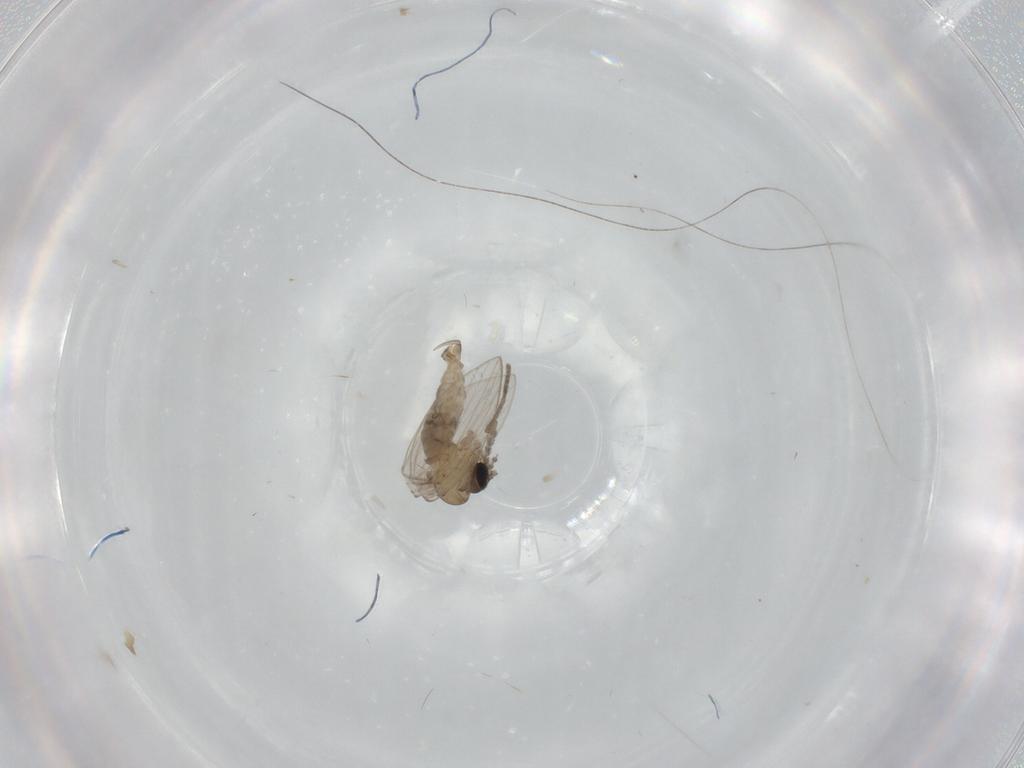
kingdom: Animalia
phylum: Arthropoda
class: Insecta
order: Diptera
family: Psychodidae
